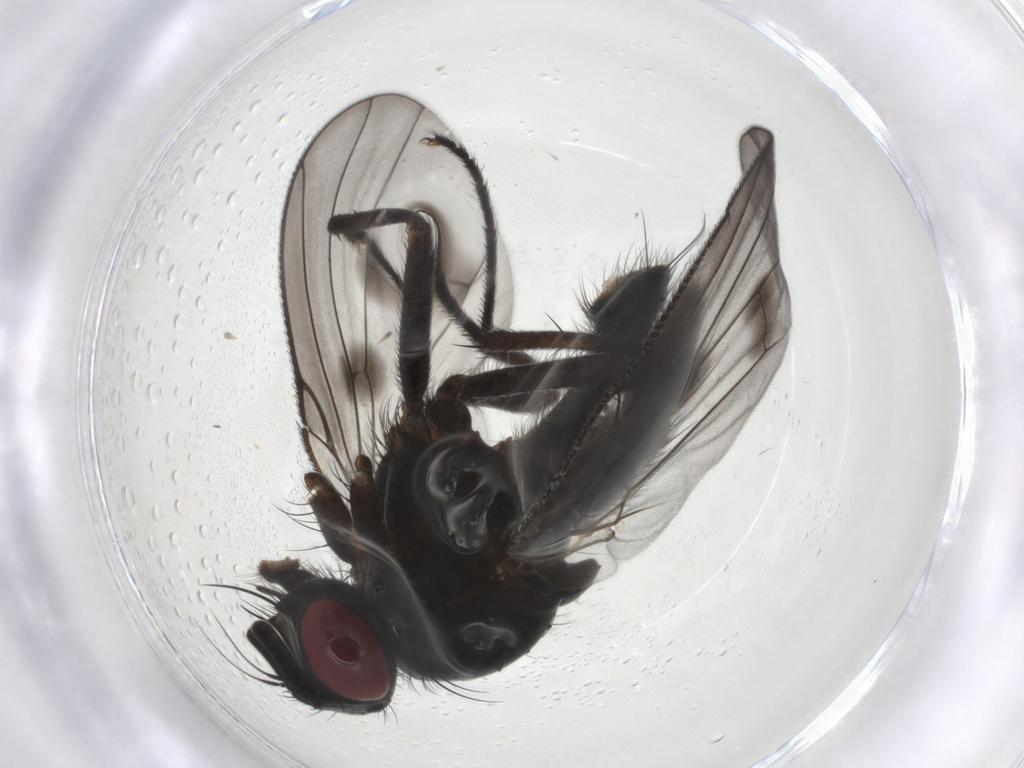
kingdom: Animalia
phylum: Arthropoda
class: Insecta
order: Diptera
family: Muscidae
